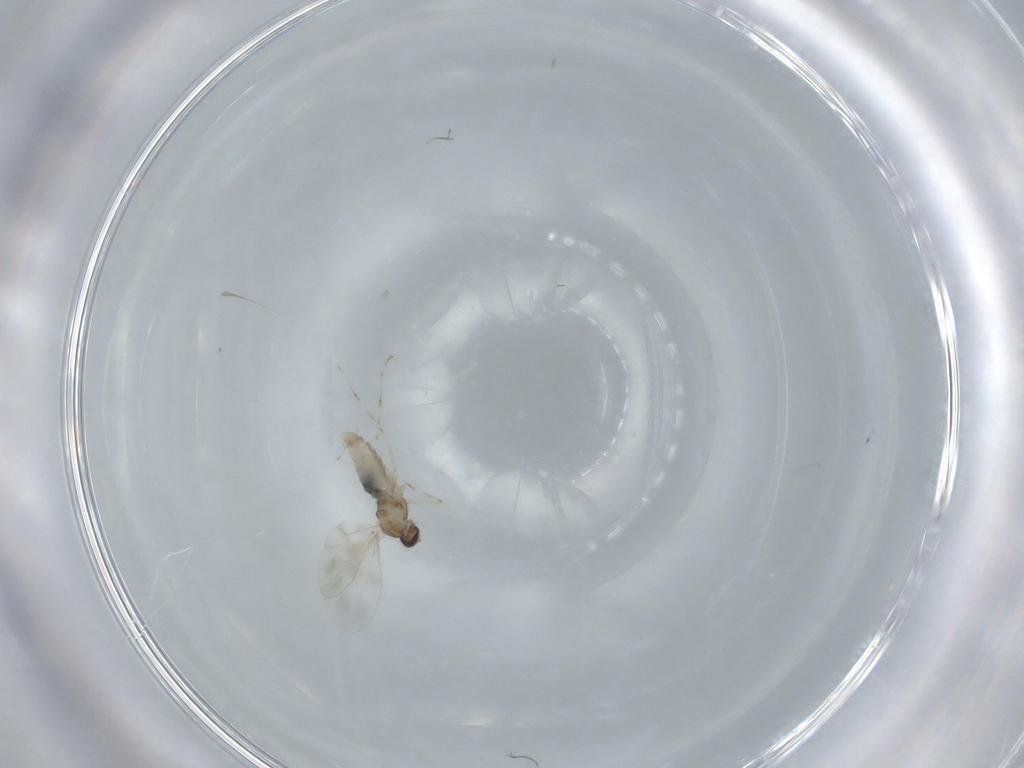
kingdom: Animalia
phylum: Arthropoda
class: Insecta
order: Diptera
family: Cecidomyiidae
